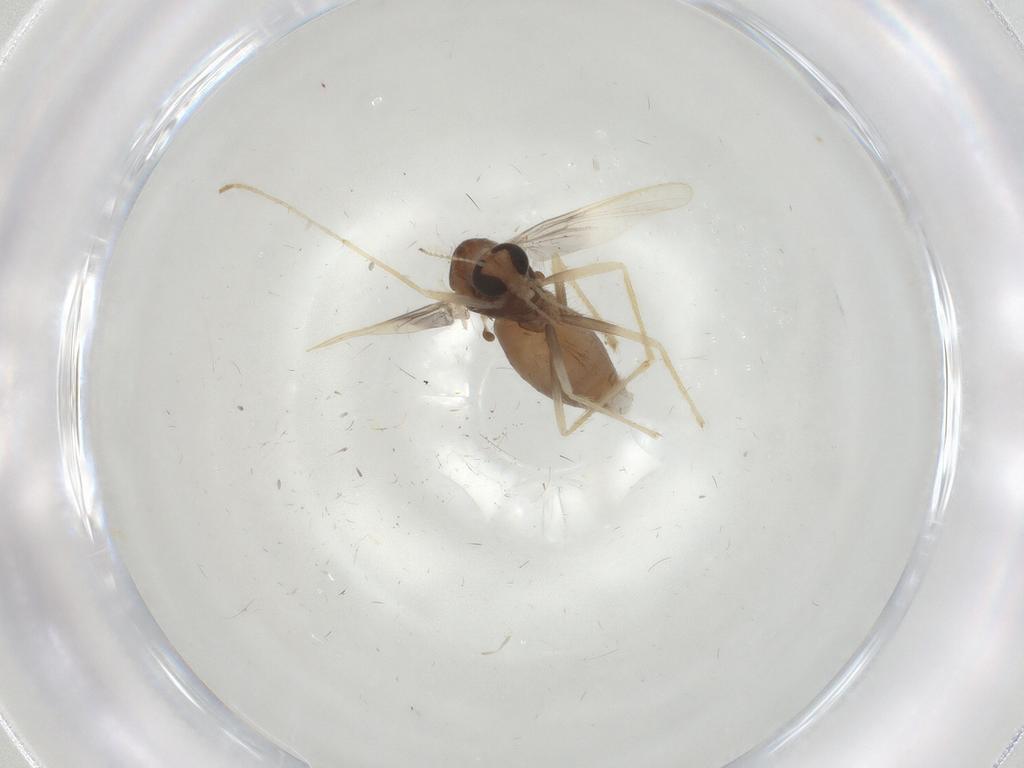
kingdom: Animalia
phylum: Arthropoda
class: Insecta
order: Diptera
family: Chironomidae
